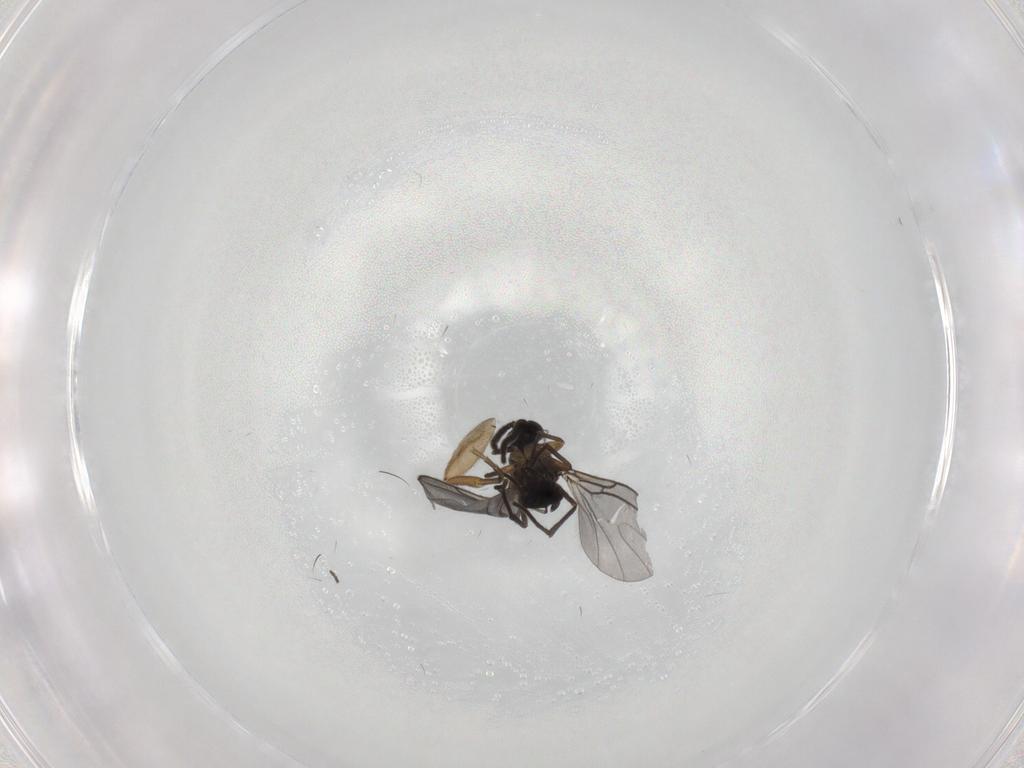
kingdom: Animalia
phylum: Arthropoda
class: Insecta
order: Diptera
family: Sciaridae
